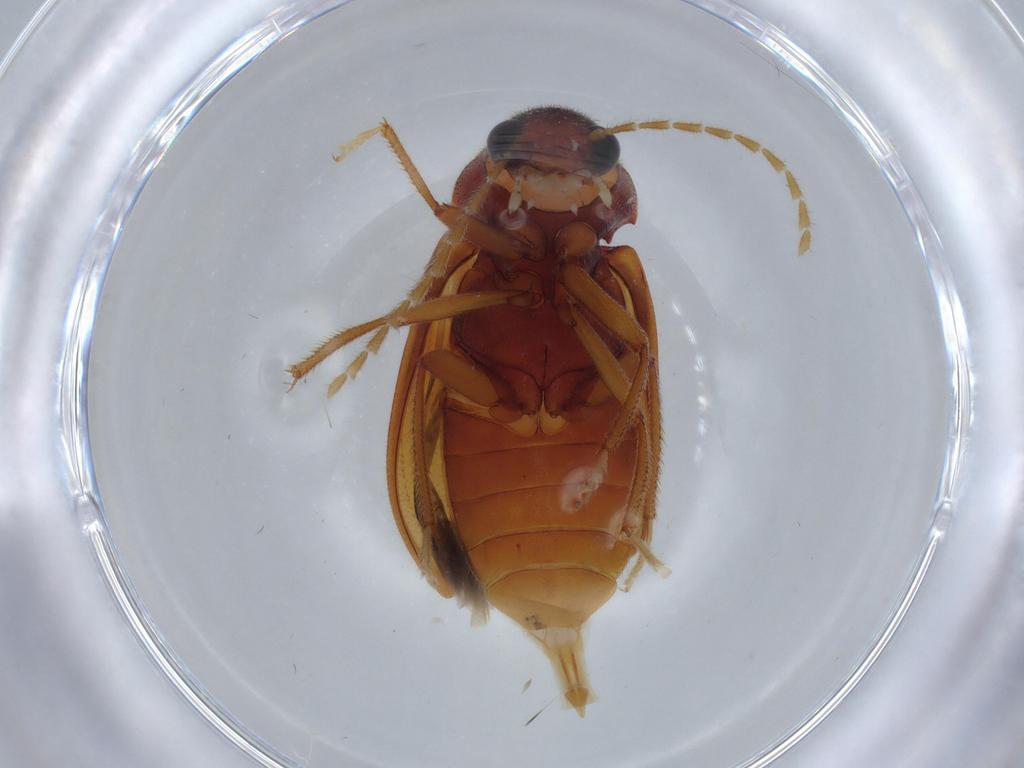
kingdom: Animalia
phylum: Arthropoda
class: Insecta
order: Coleoptera
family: Ptilodactylidae
